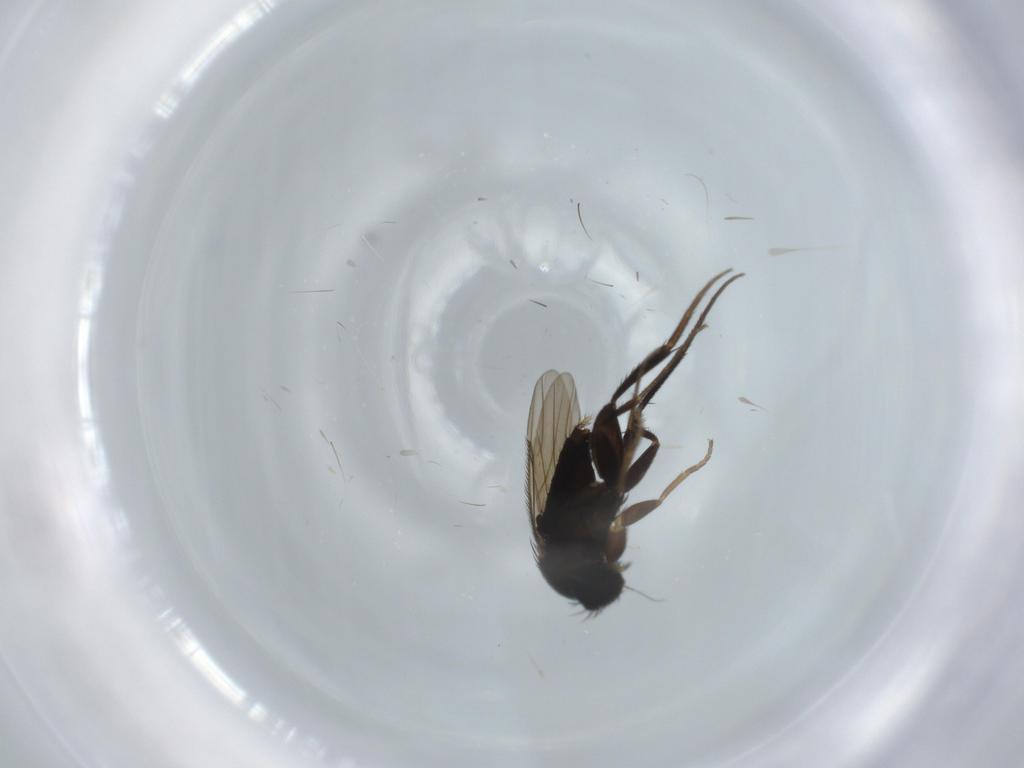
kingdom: Animalia
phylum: Arthropoda
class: Insecta
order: Diptera
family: Phoridae
